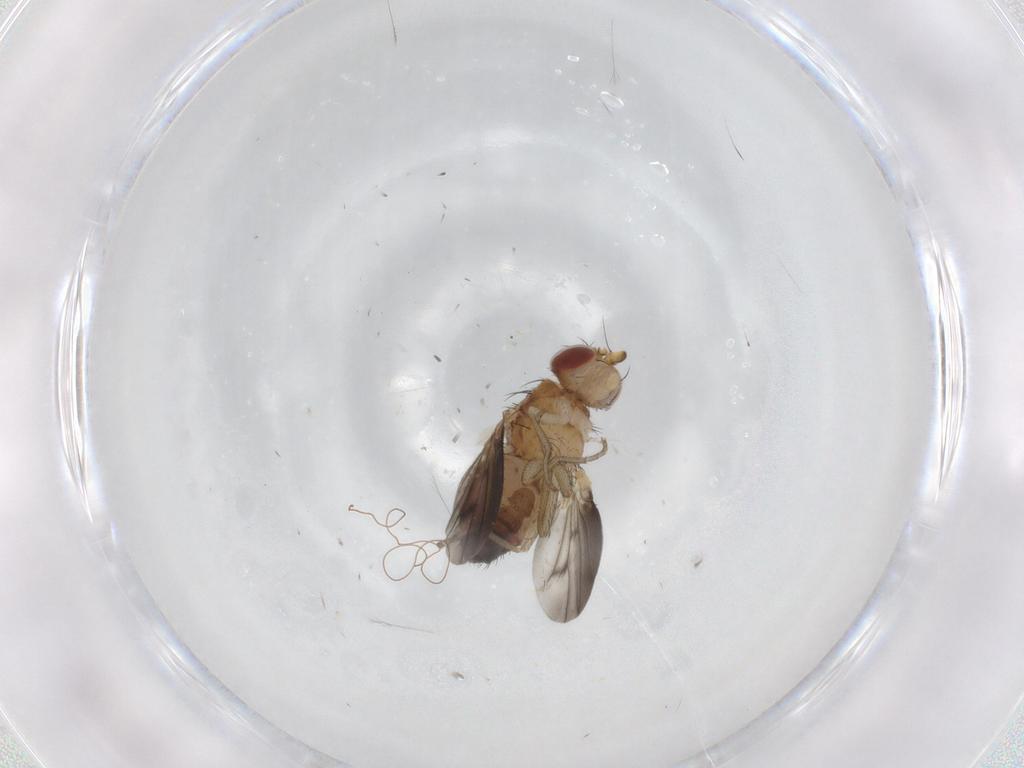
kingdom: Animalia
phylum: Arthropoda
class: Insecta
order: Diptera
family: Heleomyzidae
